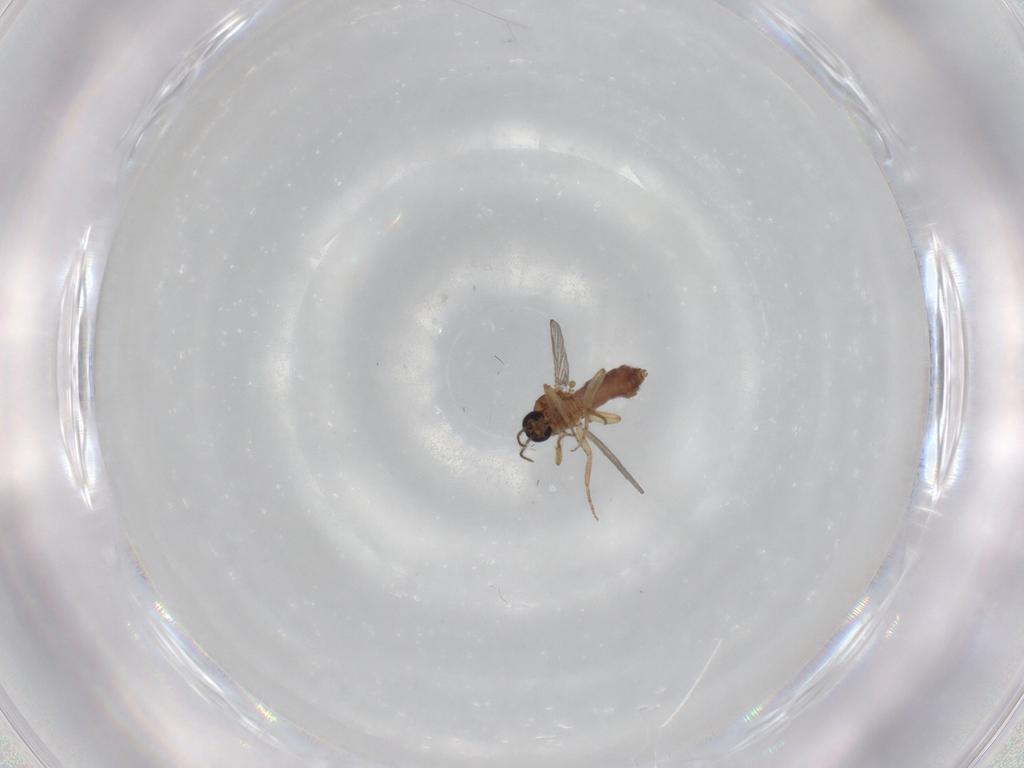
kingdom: Animalia
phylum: Arthropoda
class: Insecta
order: Diptera
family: Ceratopogonidae
